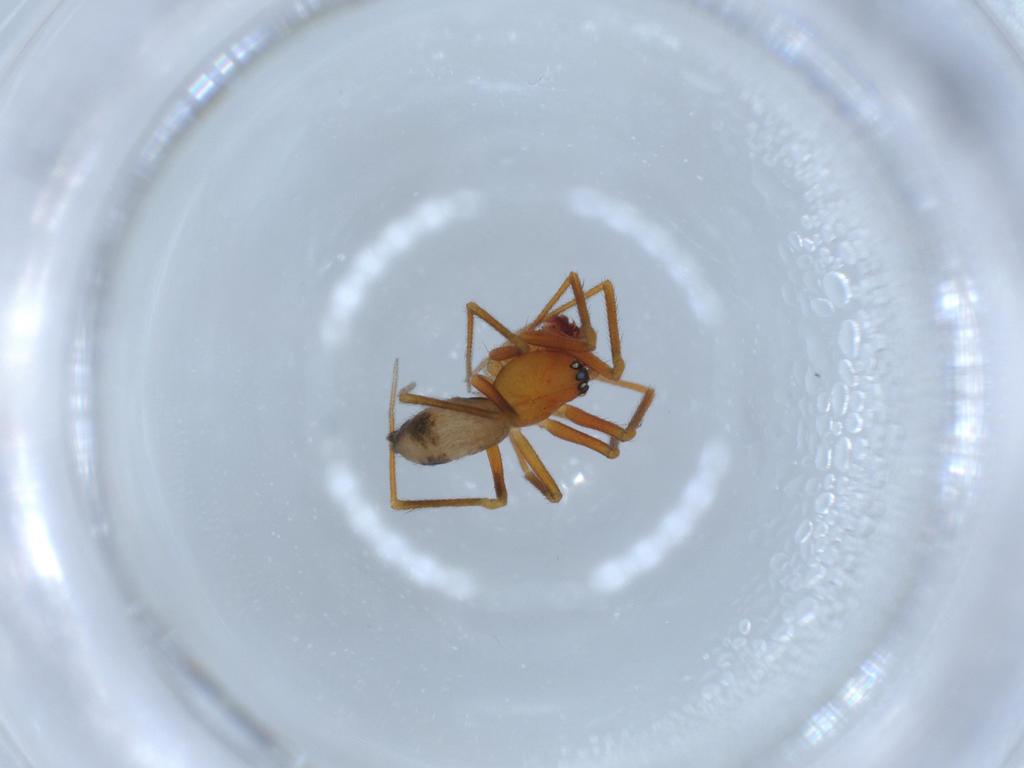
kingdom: Animalia
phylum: Arthropoda
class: Arachnida
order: Araneae
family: Linyphiidae
